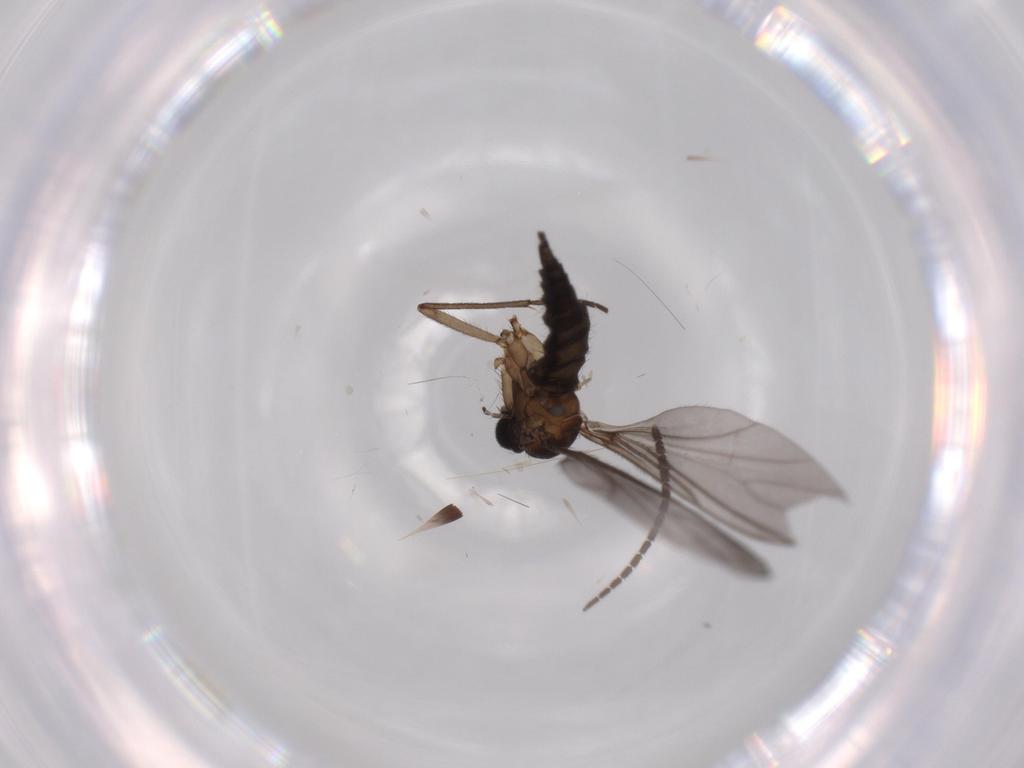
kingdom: Animalia
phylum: Arthropoda
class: Insecta
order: Diptera
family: Sciaridae
